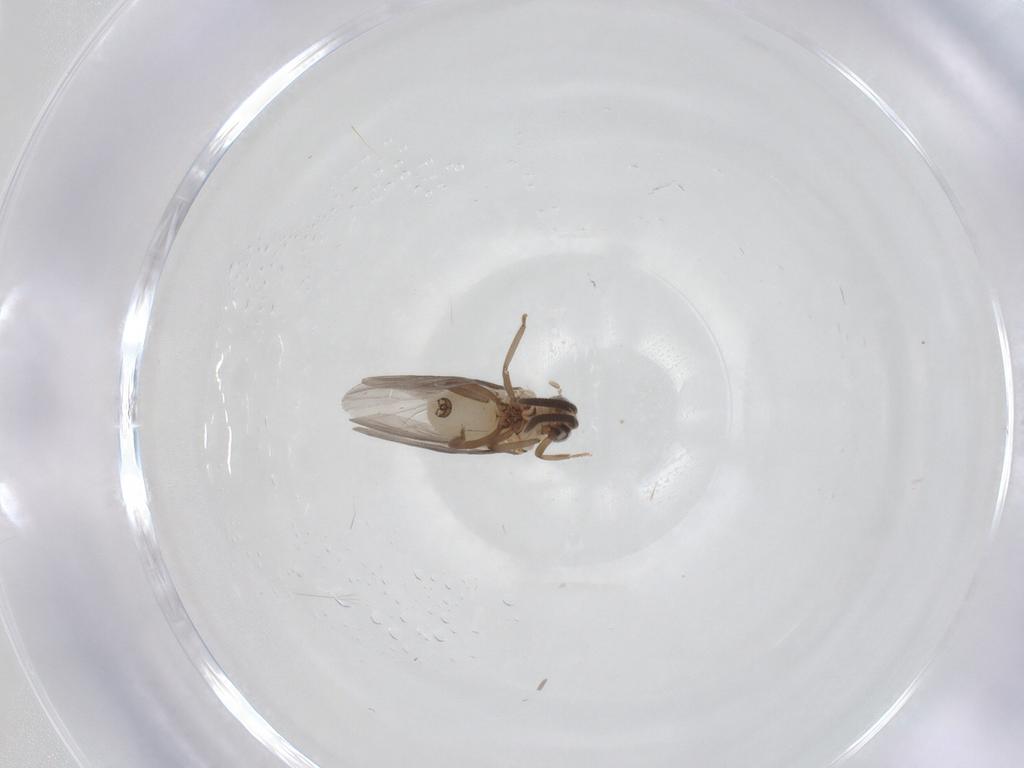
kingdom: Animalia
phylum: Arthropoda
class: Insecta
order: Neuroptera
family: Coniopterygidae
